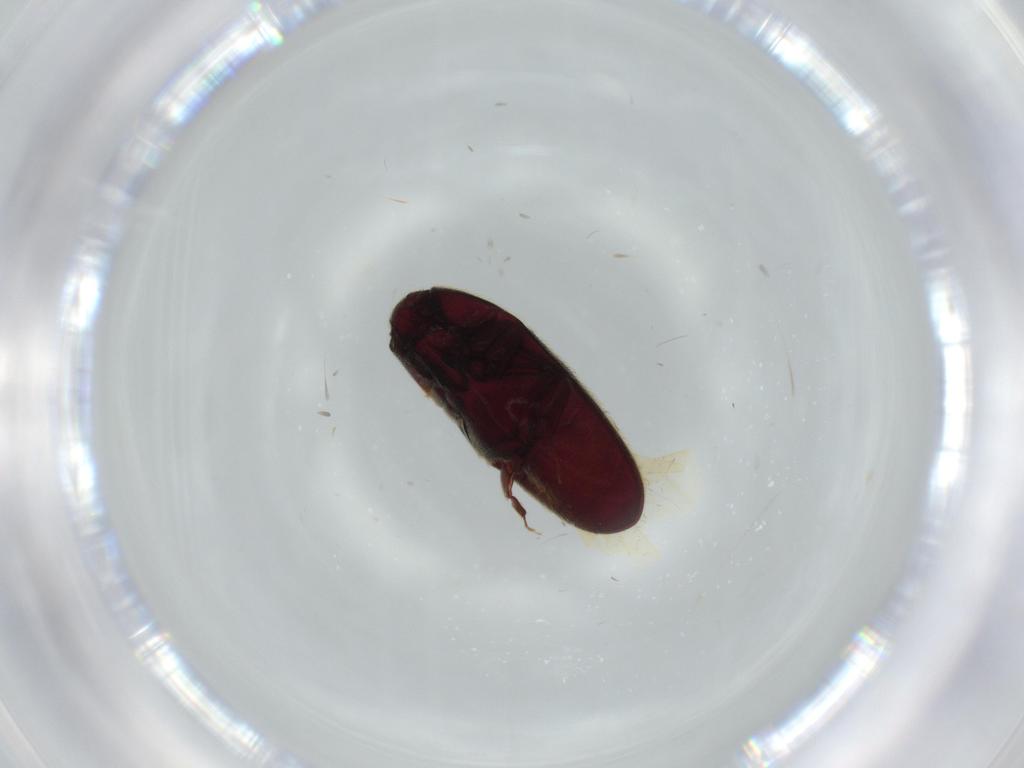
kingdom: Animalia
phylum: Arthropoda
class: Insecta
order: Coleoptera
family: Throscidae
